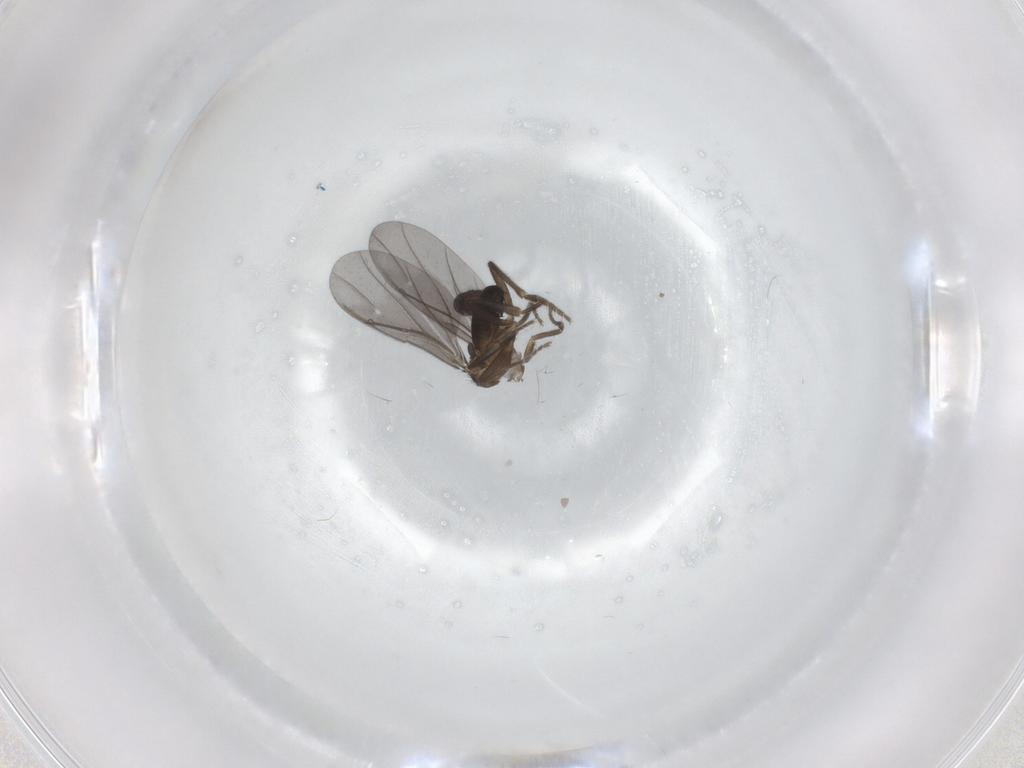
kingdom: Animalia
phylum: Arthropoda
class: Insecta
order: Diptera
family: Phoridae
